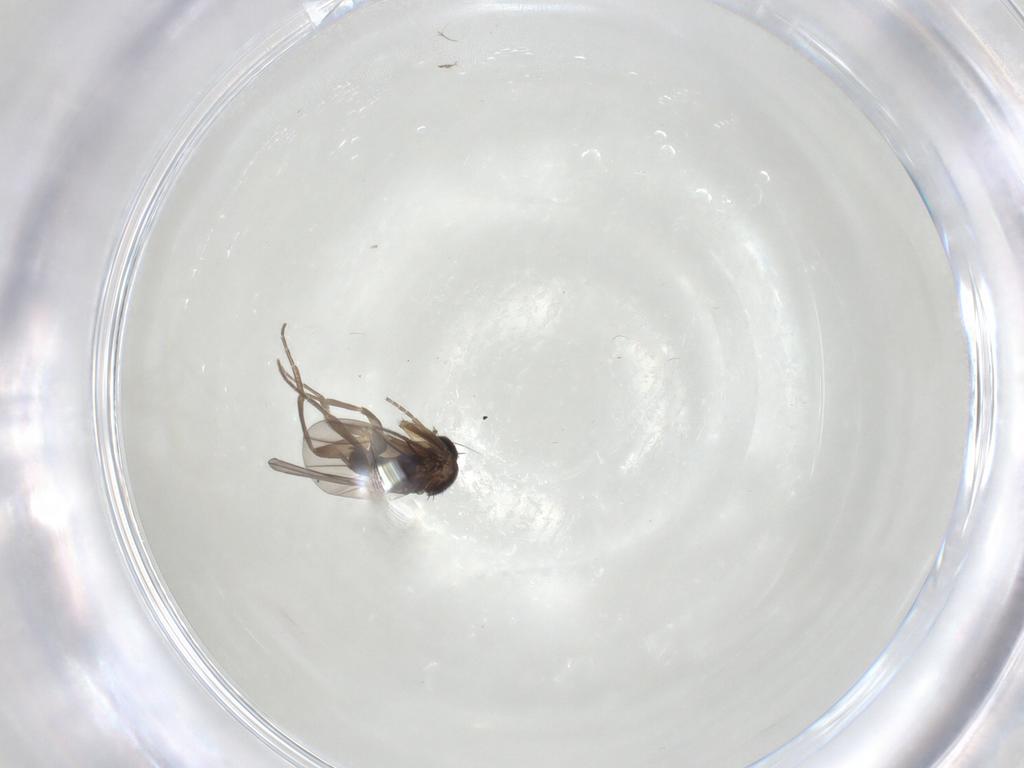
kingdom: Animalia
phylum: Arthropoda
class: Insecta
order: Diptera
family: Phoridae
